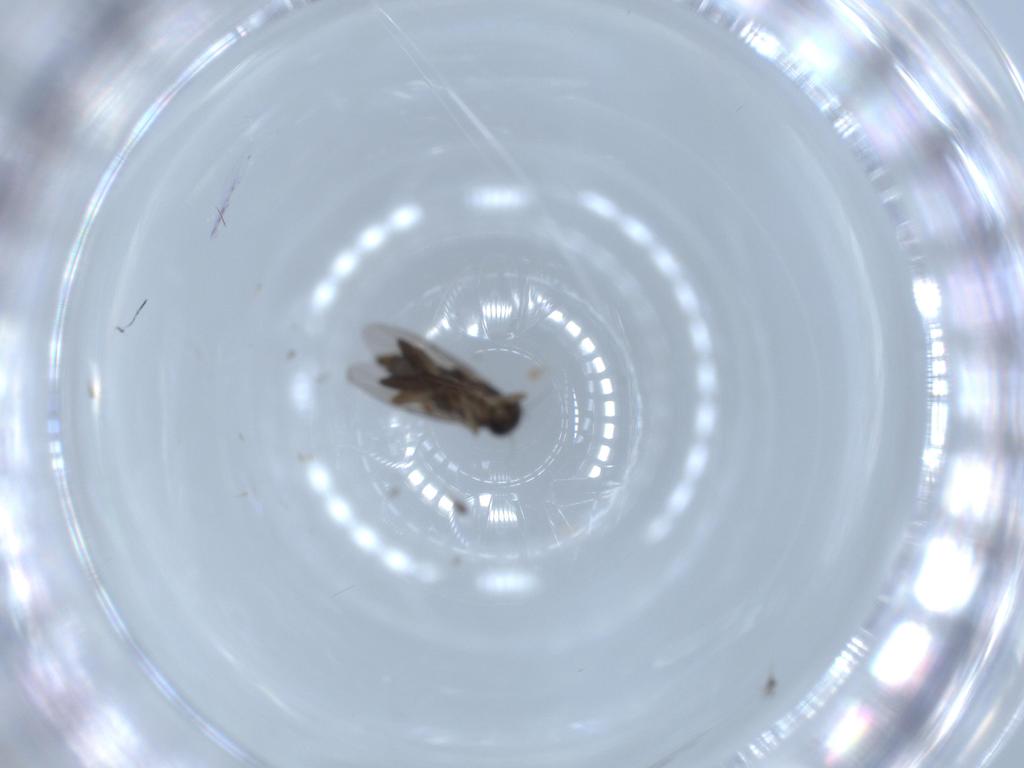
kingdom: Animalia
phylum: Arthropoda
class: Insecta
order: Diptera
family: Phoridae
